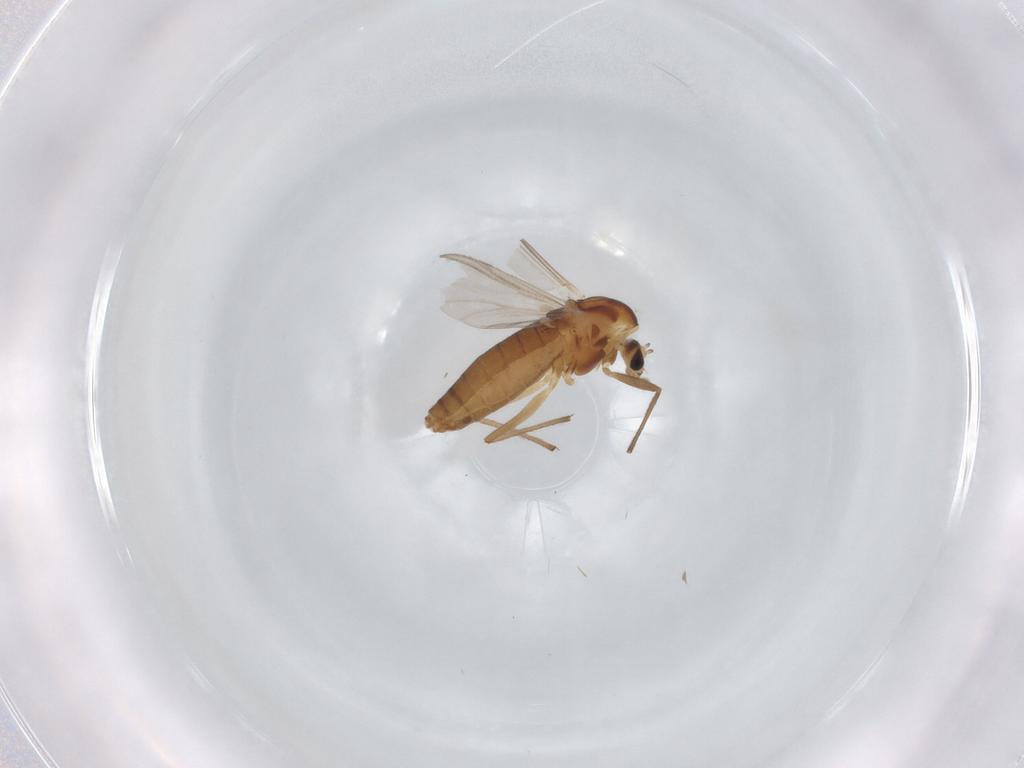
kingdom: Animalia
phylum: Arthropoda
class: Insecta
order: Diptera
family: Chironomidae
